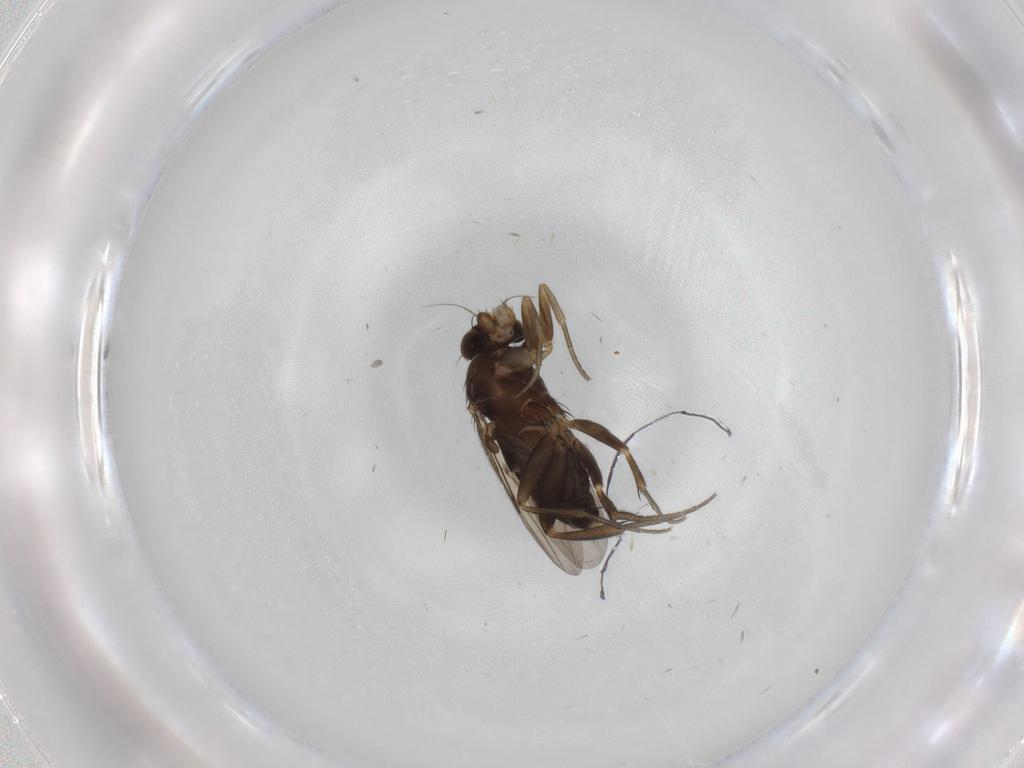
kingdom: Animalia
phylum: Arthropoda
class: Insecta
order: Diptera
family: Phoridae
